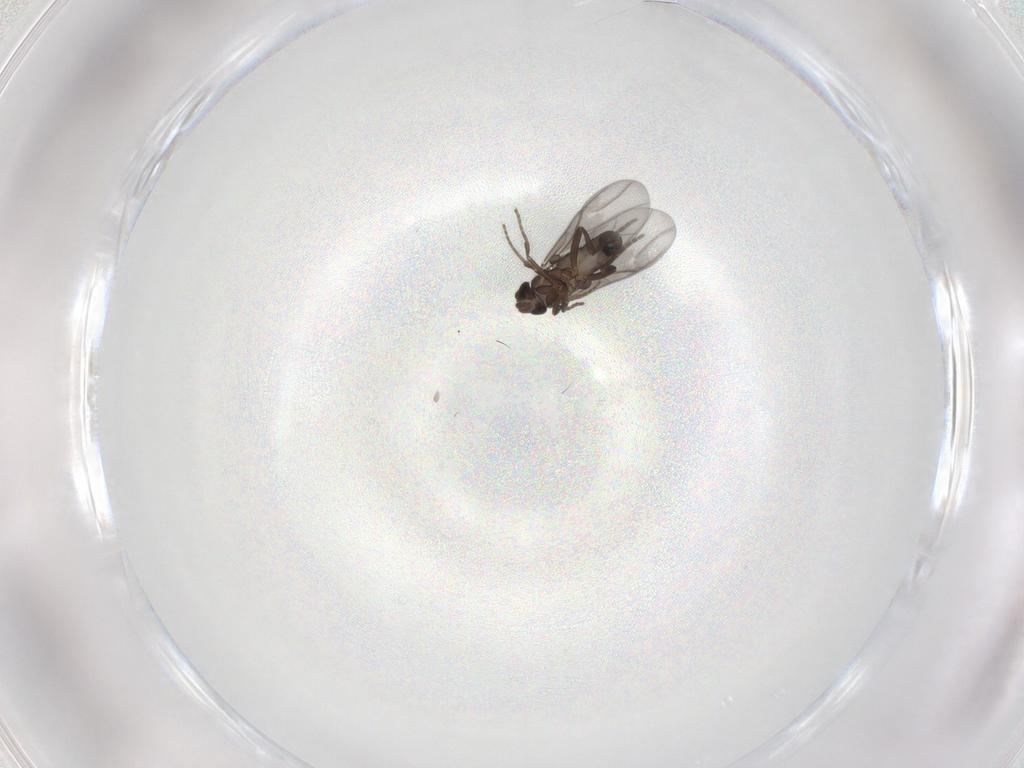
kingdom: Animalia
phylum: Arthropoda
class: Insecta
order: Diptera
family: Phoridae
